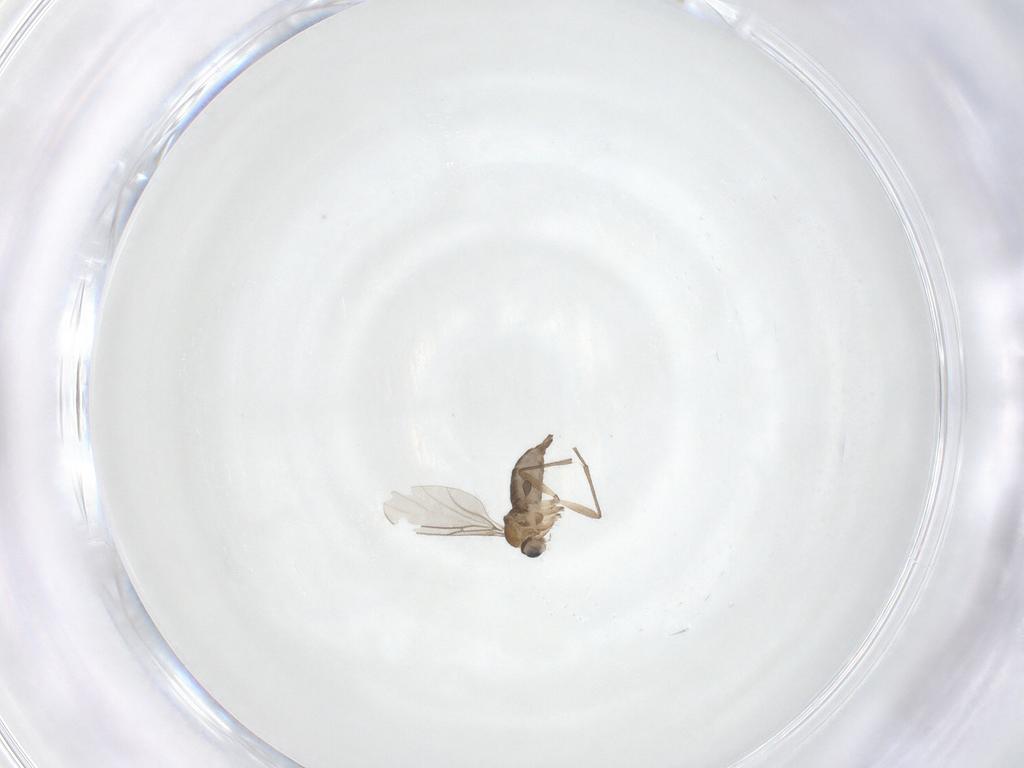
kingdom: Animalia
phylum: Arthropoda
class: Insecta
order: Diptera
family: Sciaridae
